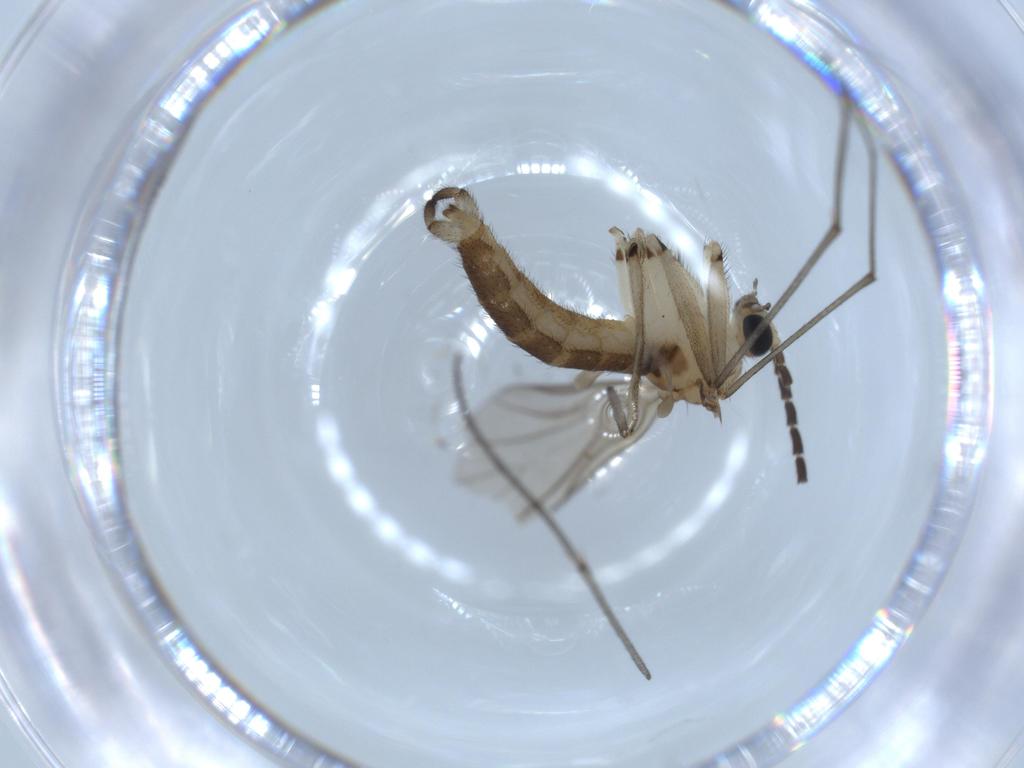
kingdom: Animalia
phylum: Arthropoda
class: Insecta
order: Diptera
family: Sciaridae
